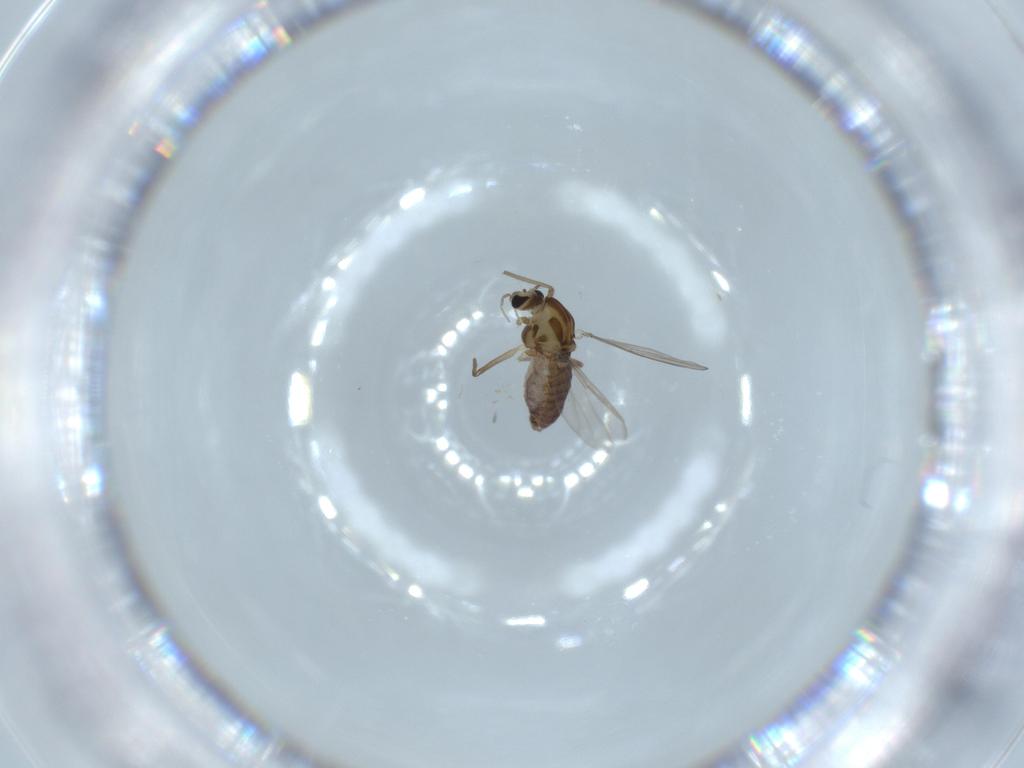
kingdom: Animalia
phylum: Arthropoda
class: Insecta
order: Diptera
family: Chironomidae
